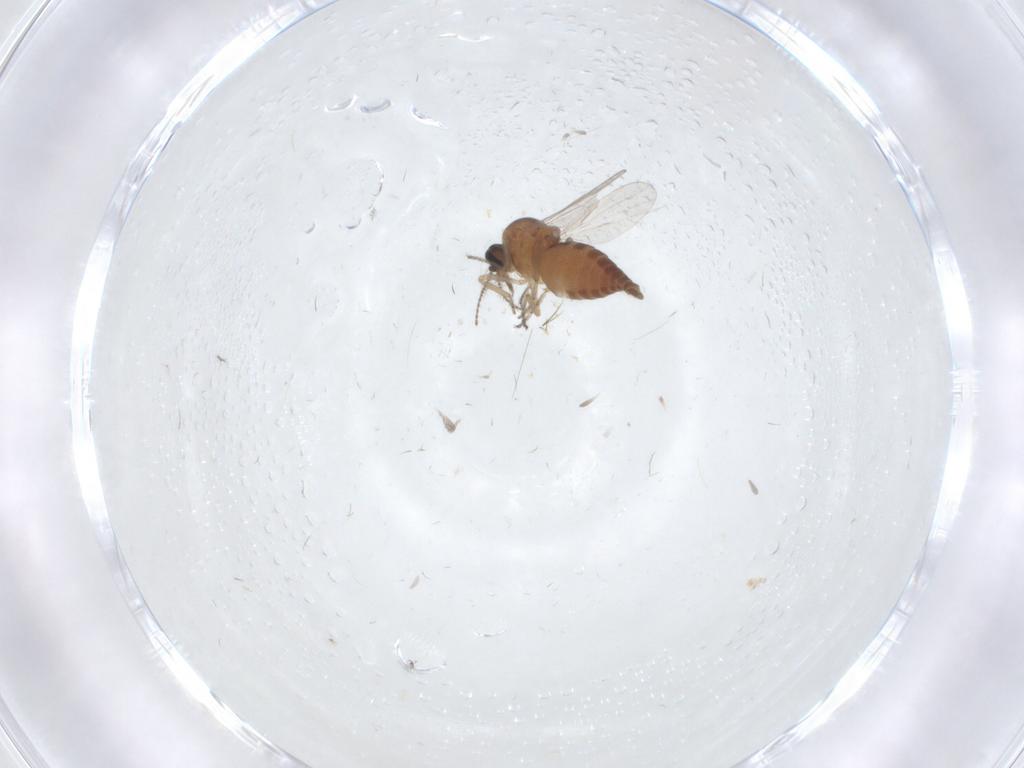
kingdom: Animalia
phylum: Arthropoda
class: Insecta
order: Diptera
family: Ceratopogonidae
